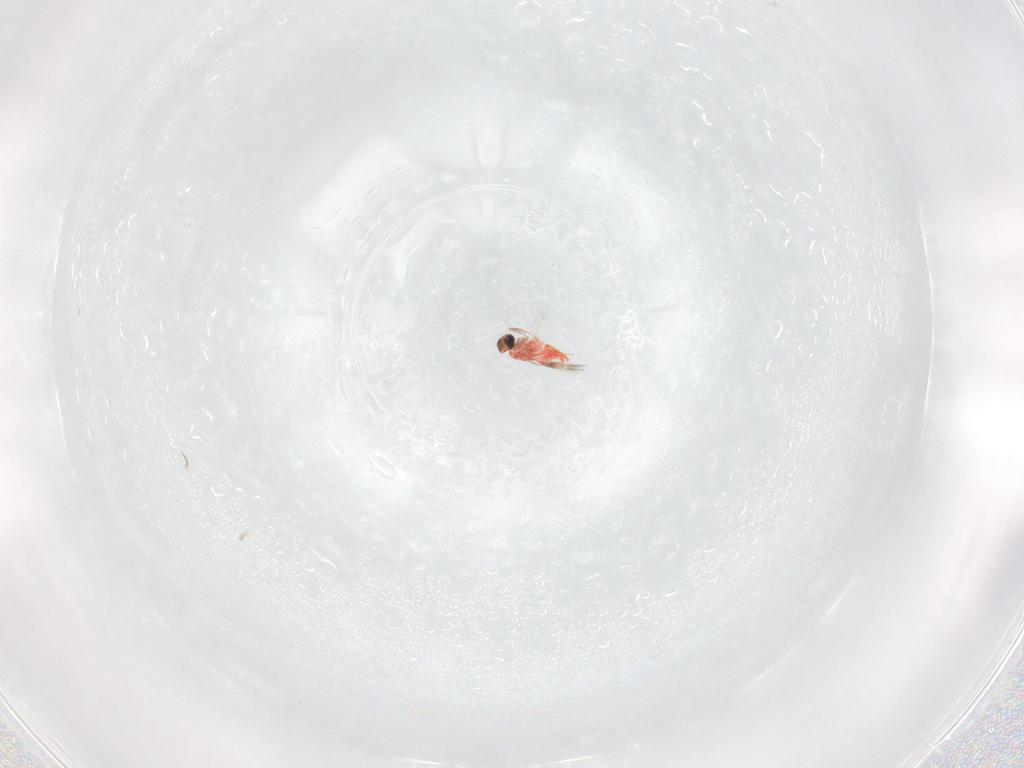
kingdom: Animalia
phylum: Arthropoda
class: Insecta
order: Hymenoptera
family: Trichogrammatidae
